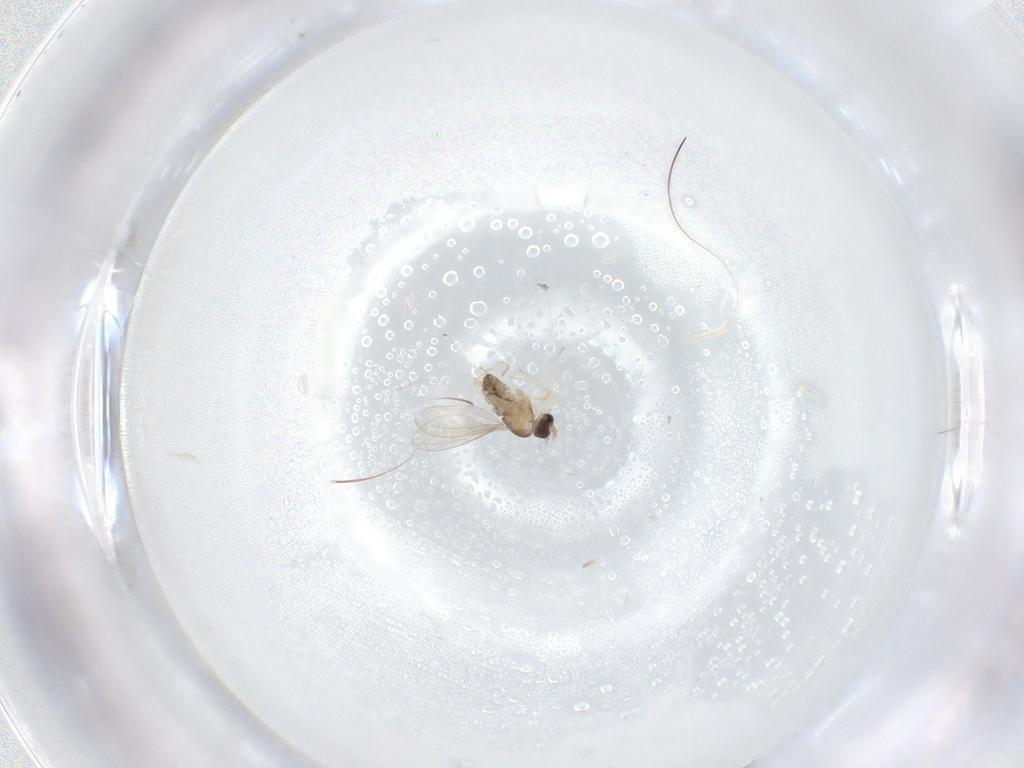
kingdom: Animalia
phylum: Arthropoda
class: Insecta
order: Diptera
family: Cecidomyiidae
